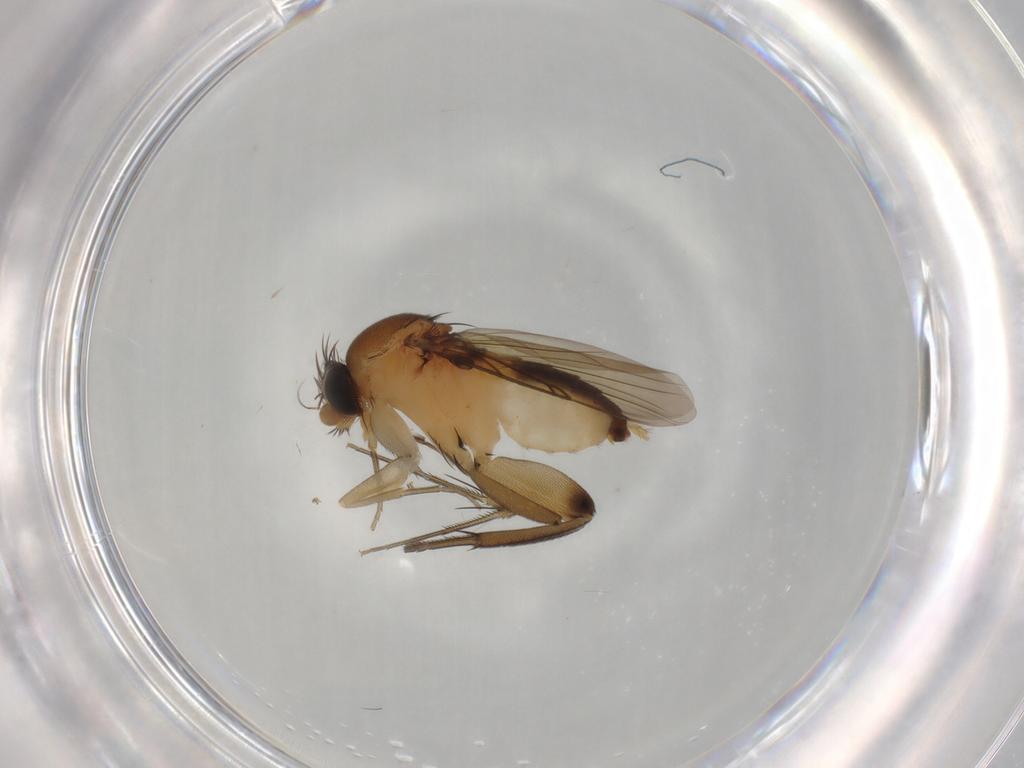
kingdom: Animalia
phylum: Arthropoda
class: Insecta
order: Diptera
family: Phoridae
